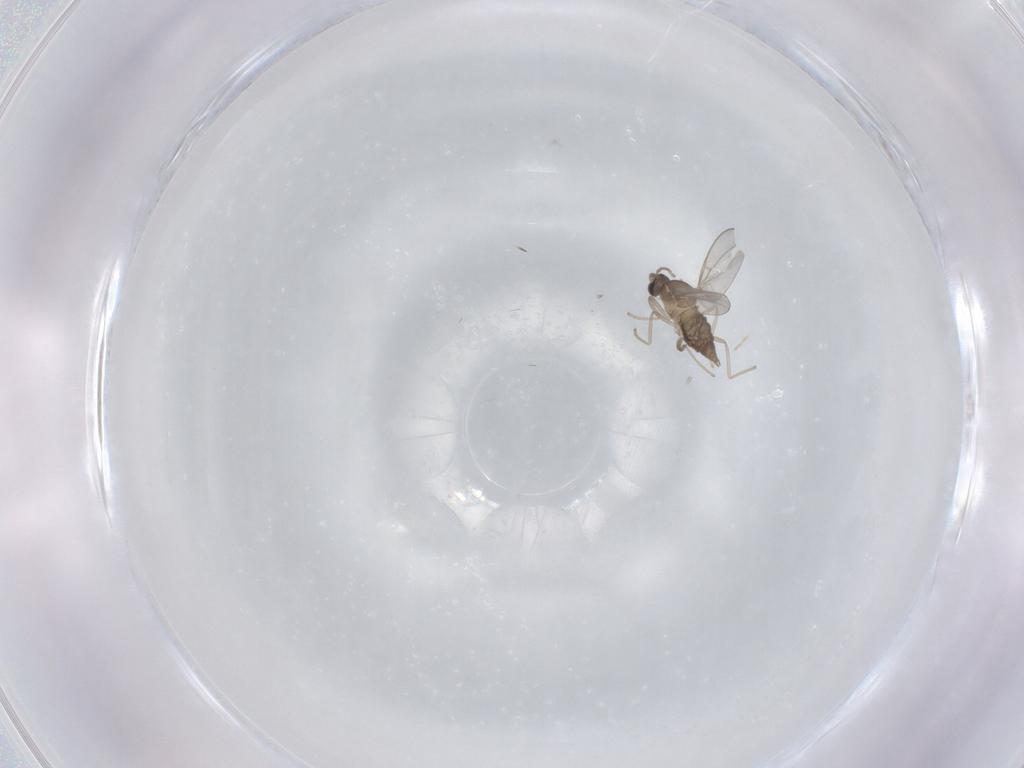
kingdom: Animalia
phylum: Arthropoda
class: Insecta
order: Diptera
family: Cecidomyiidae
